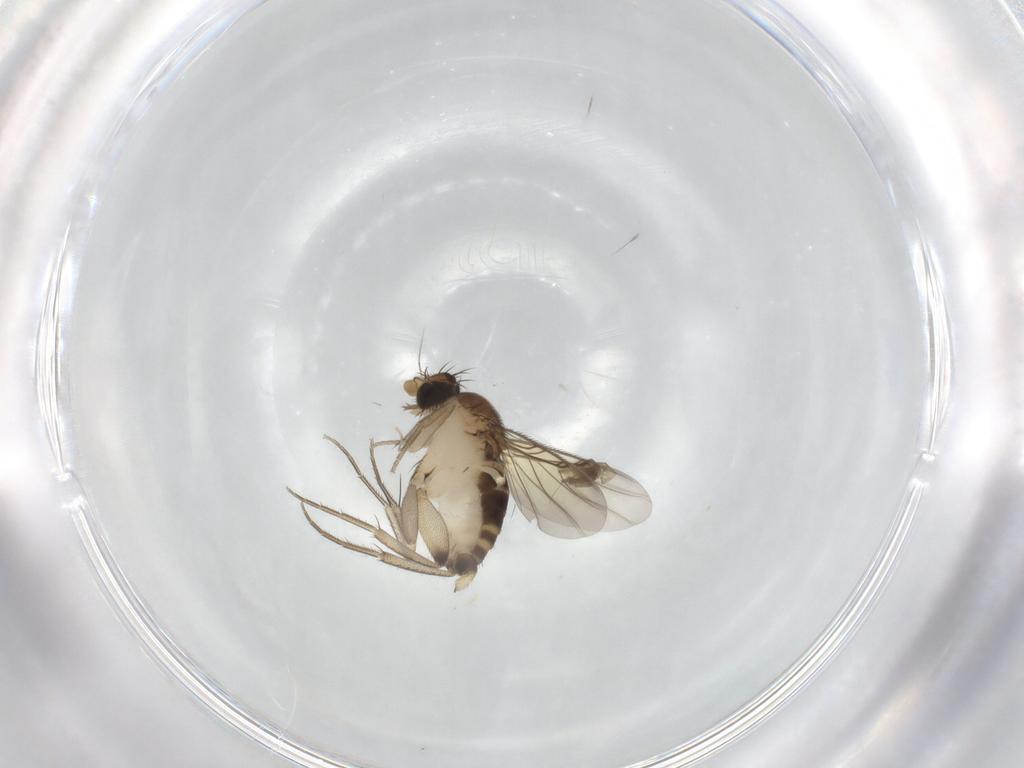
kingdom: Animalia
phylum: Arthropoda
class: Insecta
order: Diptera
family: Phoridae
